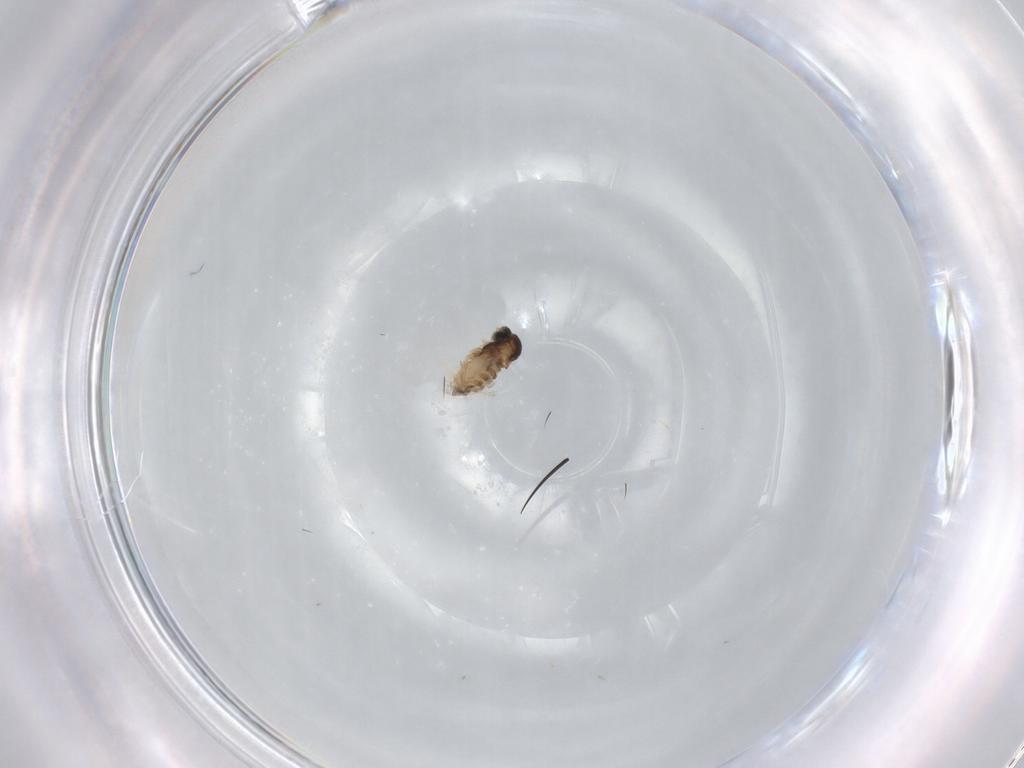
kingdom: Animalia
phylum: Arthropoda
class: Insecta
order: Diptera
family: Cecidomyiidae
